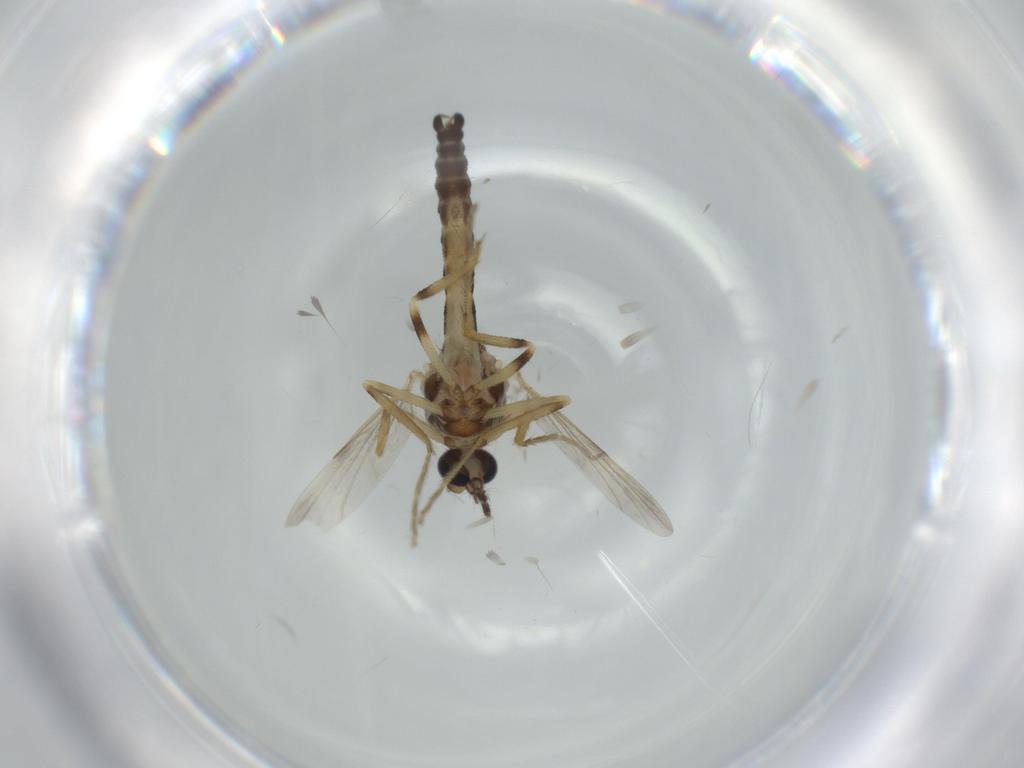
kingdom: Animalia
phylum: Arthropoda
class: Insecta
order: Diptera
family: Ceratopogonidae
